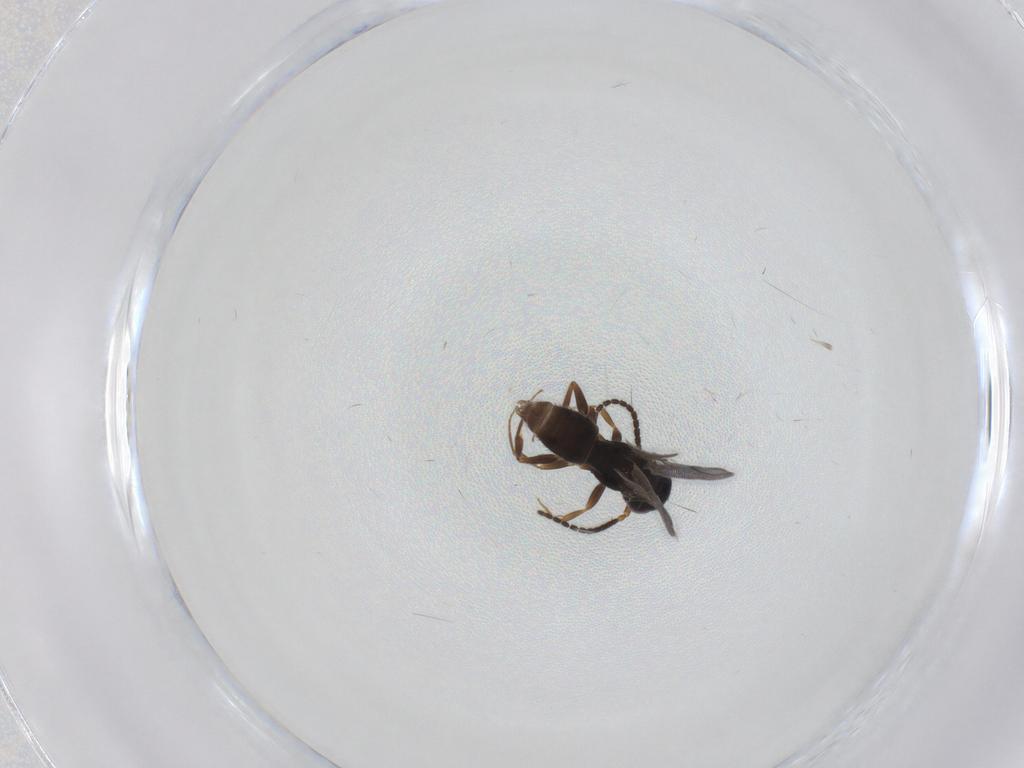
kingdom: Animalia
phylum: Arthropoda
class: Insecta
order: Hymenoptera
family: Bethylidae
